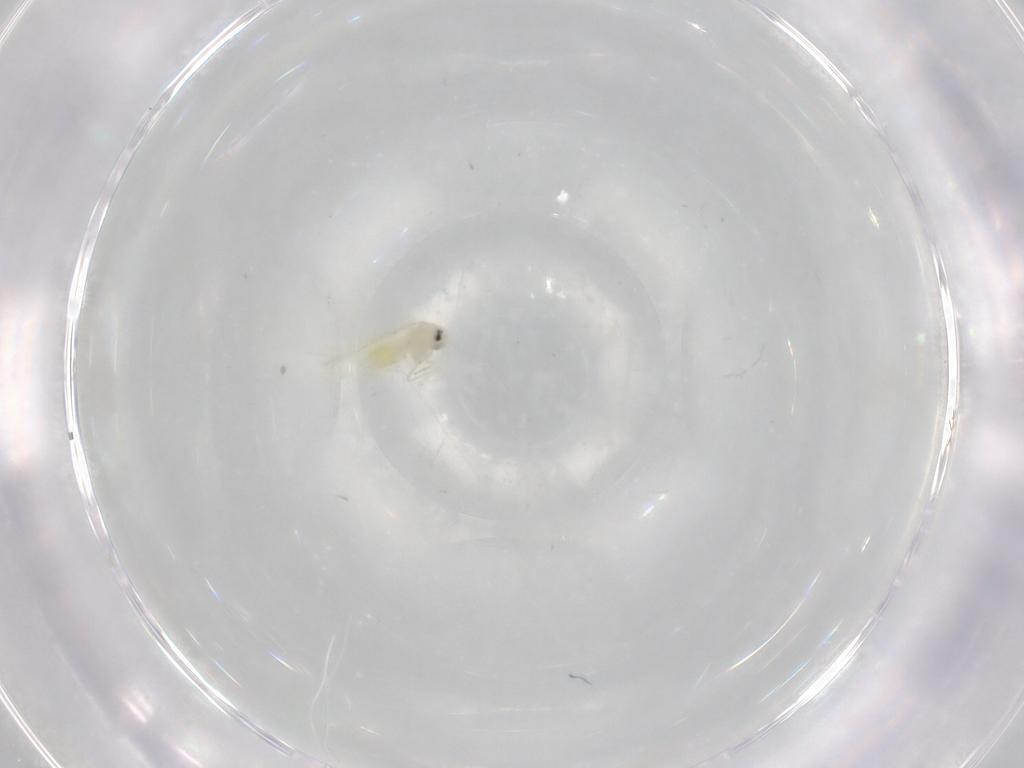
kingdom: Animalia
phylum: Arthropoda
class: Insecta
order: Hemiptera
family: Aleyrodidae
